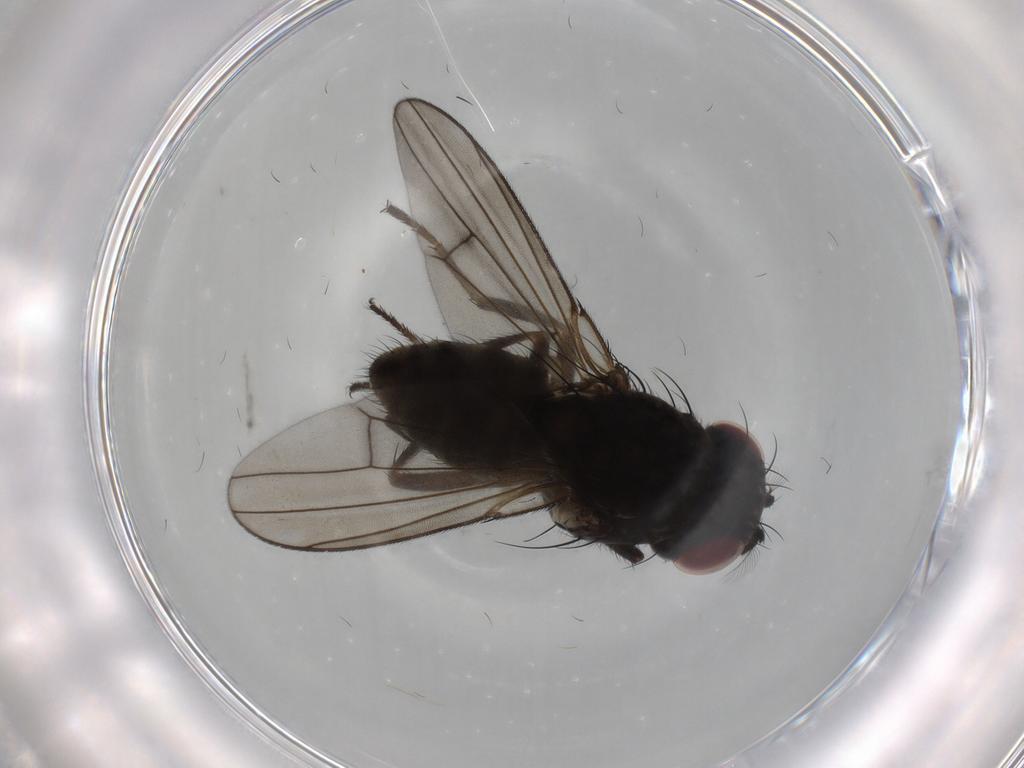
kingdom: Animalia
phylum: Arthropoda
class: Insecta
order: Diptera
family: Ephydridae
